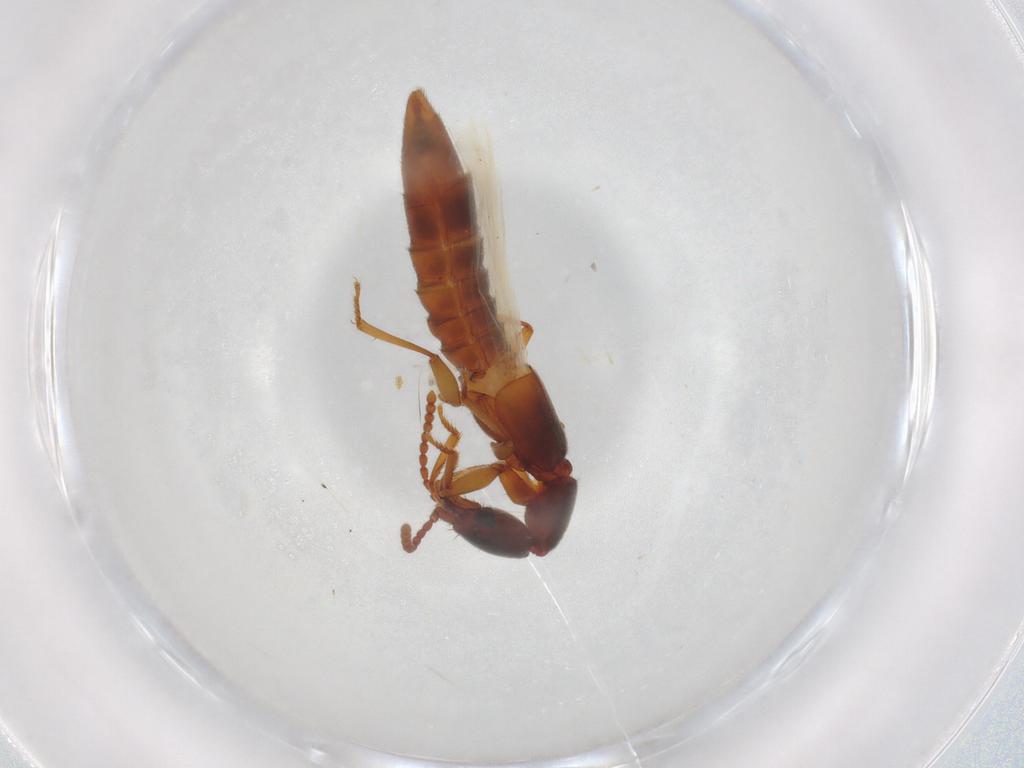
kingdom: Animalia
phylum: Arthropoda
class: Insecta
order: Coleoptera
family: Staphylinidae
